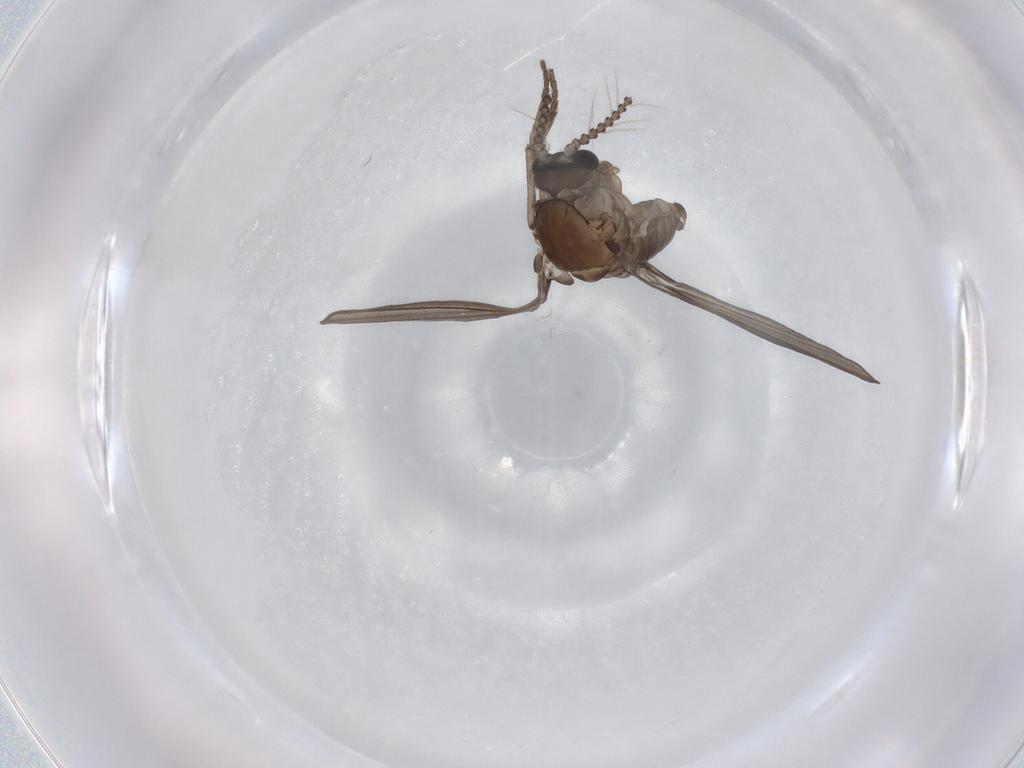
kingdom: Animalia
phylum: Arthropoda
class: Insecta
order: Diptera
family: Psychodidae
